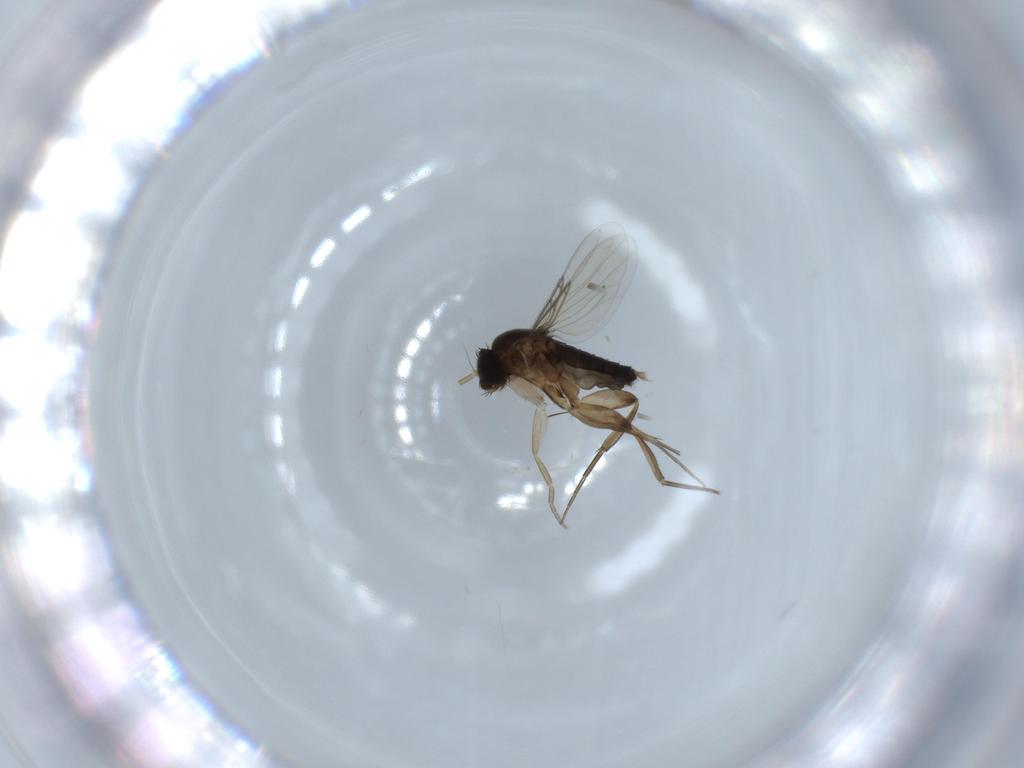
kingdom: Animalia
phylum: Arthropoda
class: Insecta
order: Diptera
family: Phoridae
